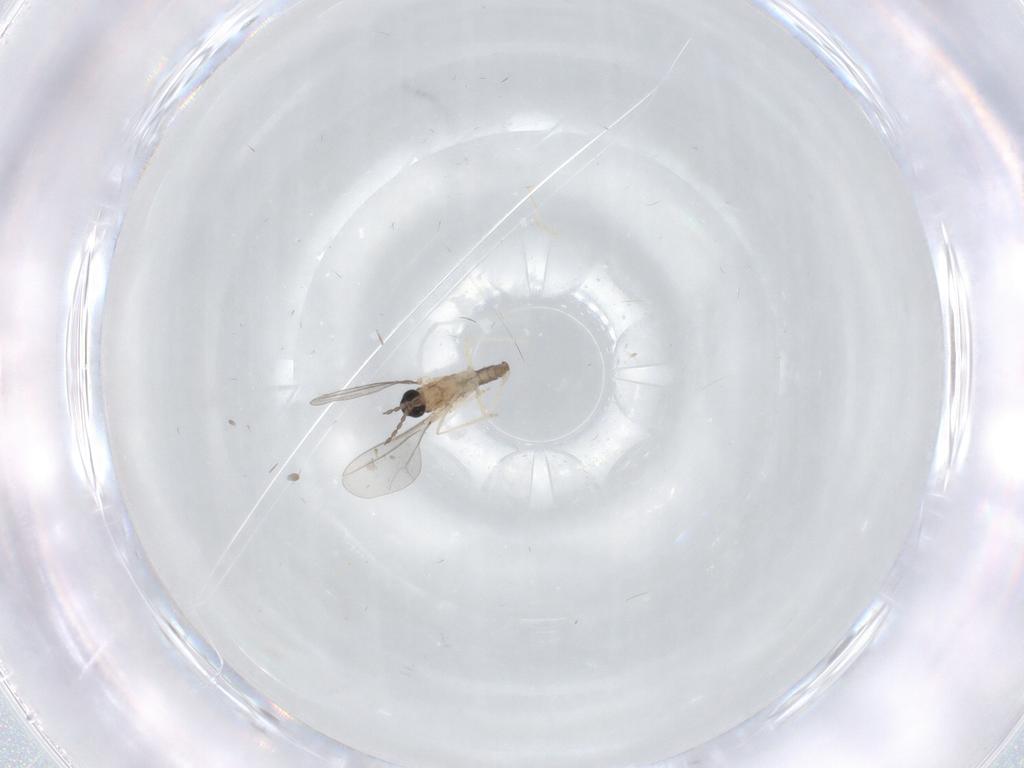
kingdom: Animalia
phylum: Arthropoda
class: Insecta
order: Diptera
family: Cecidomyiidae
